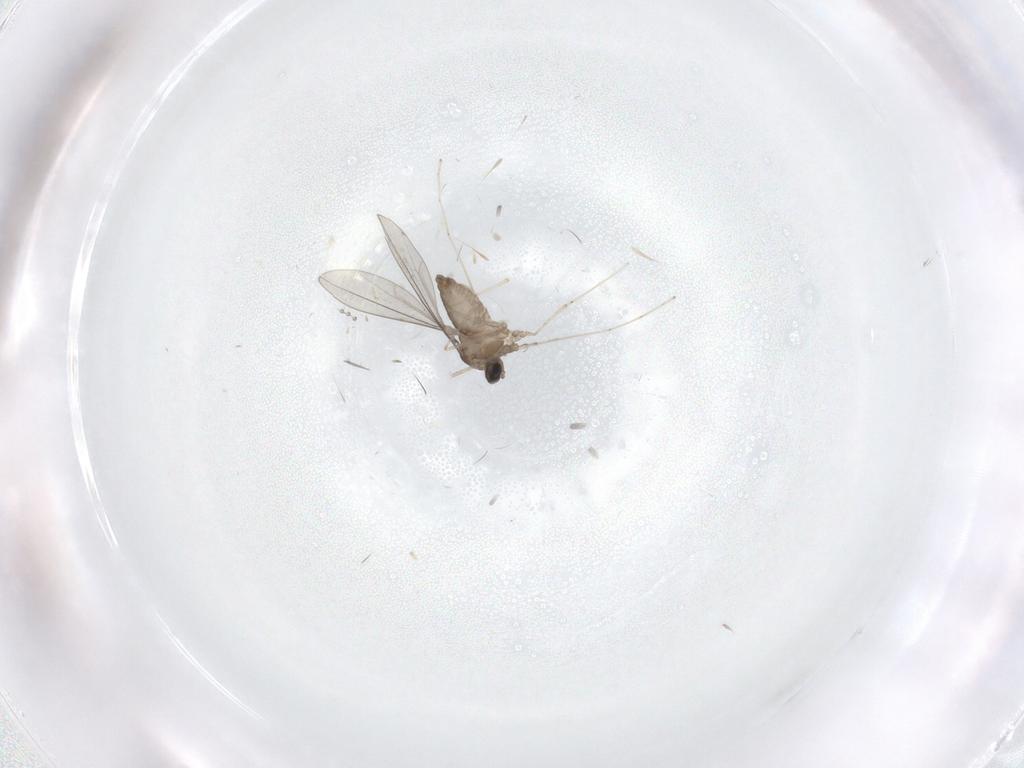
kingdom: Animalia
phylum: Arthropoda
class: Insecta
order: Diptera
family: Cecidomyiidae
